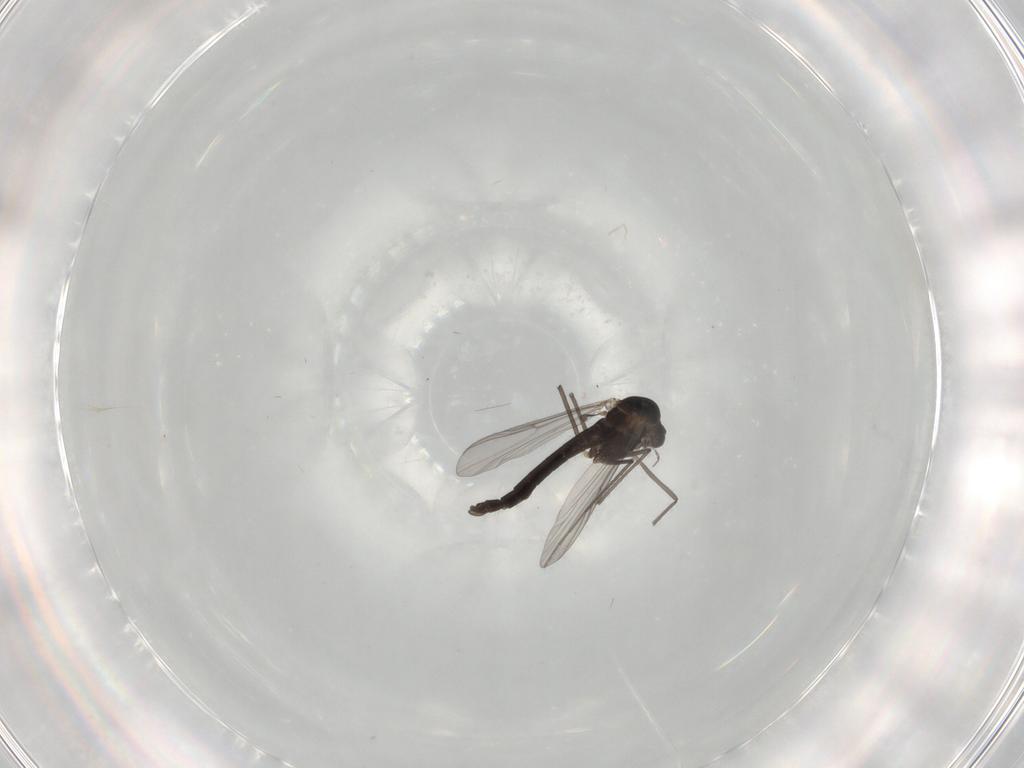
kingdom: Animalia
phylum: Arthropoda
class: Insecta
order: Diptera
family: Chironomidae
